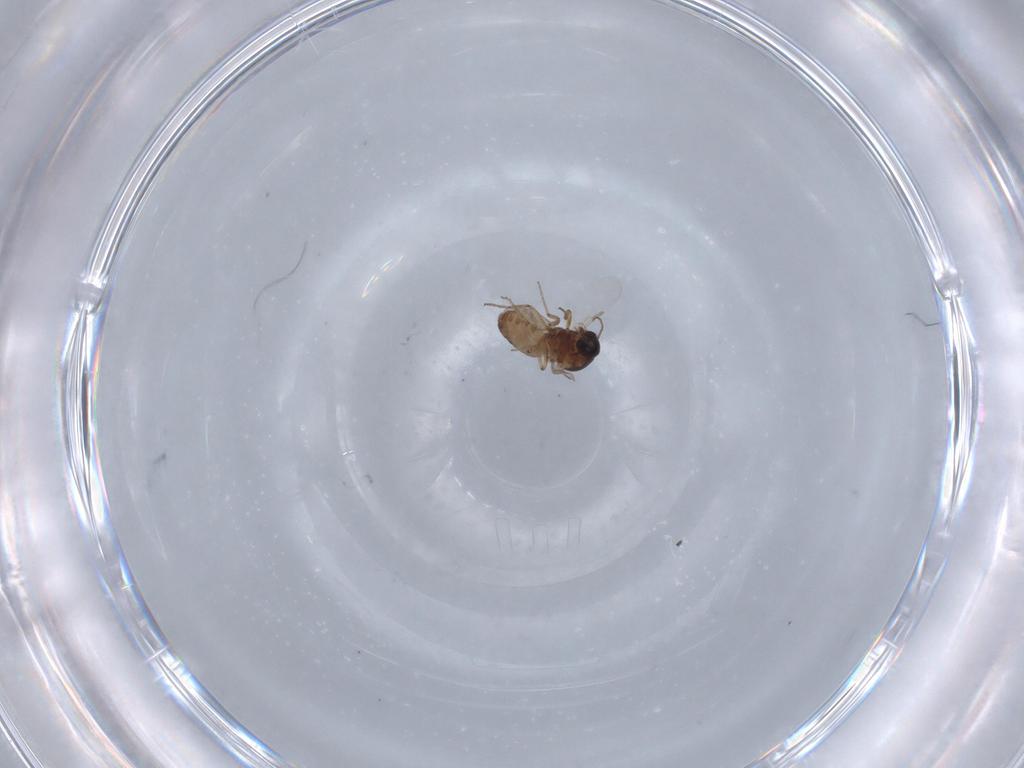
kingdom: Animalia
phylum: Arthropoda
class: Insecta
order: Diptera
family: Ceratopogonidae
